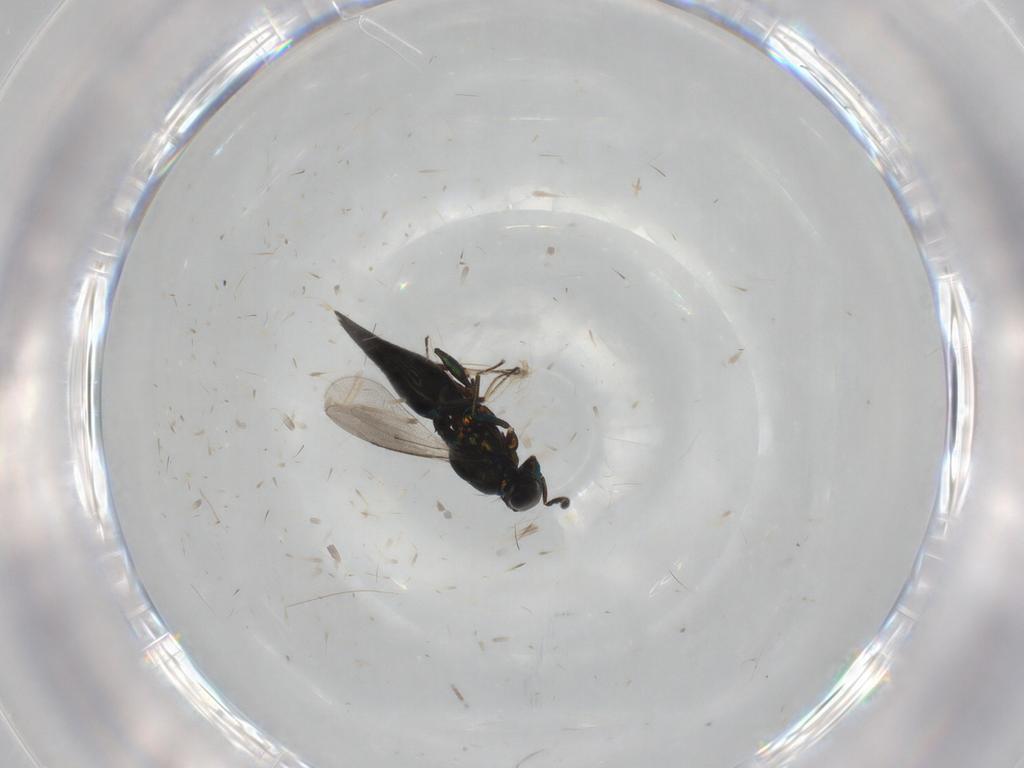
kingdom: Animalia
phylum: Arthropoda
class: Insecta
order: Hymenoptera
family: Eulophidae
